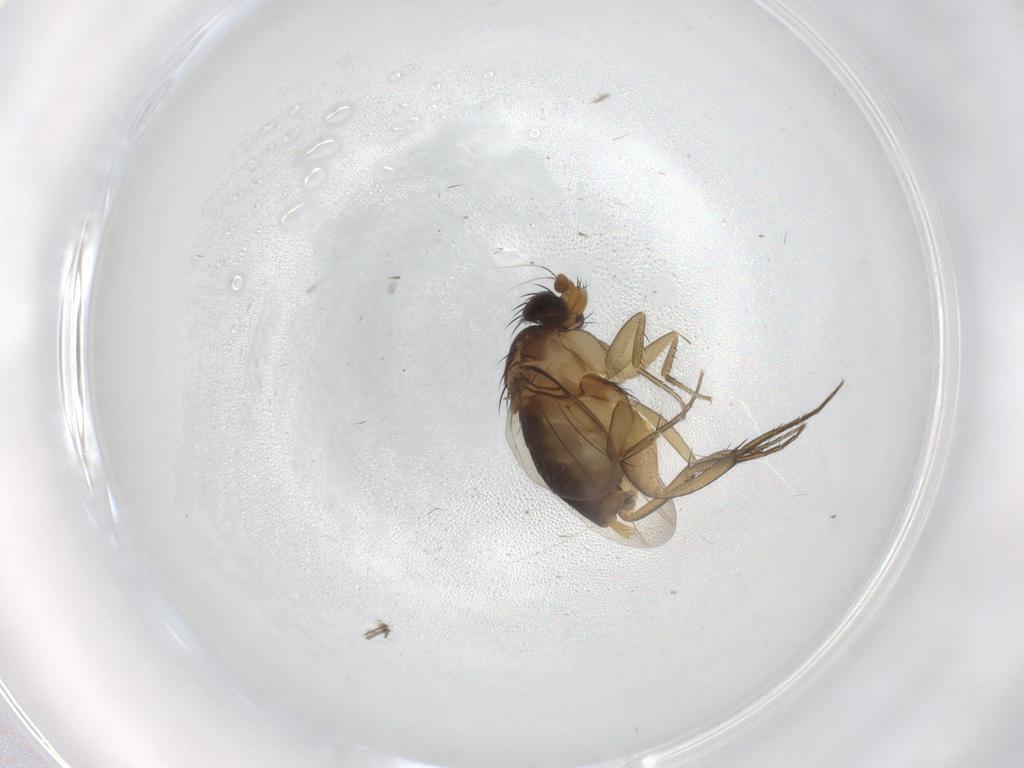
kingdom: Animalia
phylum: Arthropoda
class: Insecta
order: Diptera
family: Phoridae
